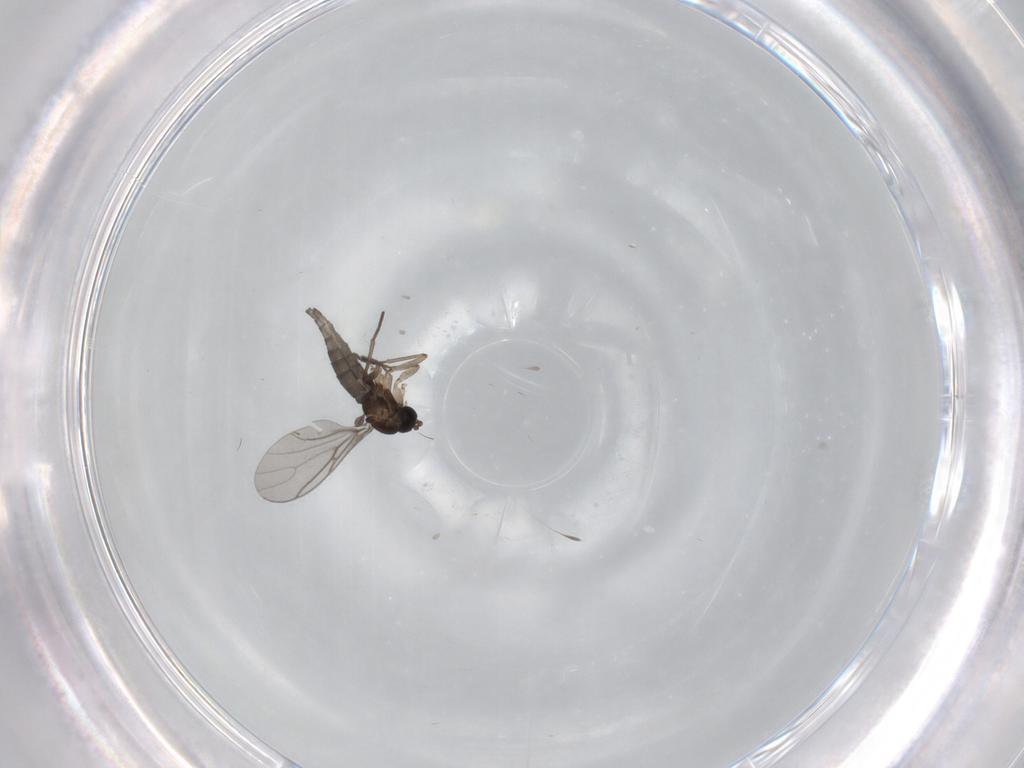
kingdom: Animalia
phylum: Arthropoda
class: Insecta
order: Diptera
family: Sciaridae
